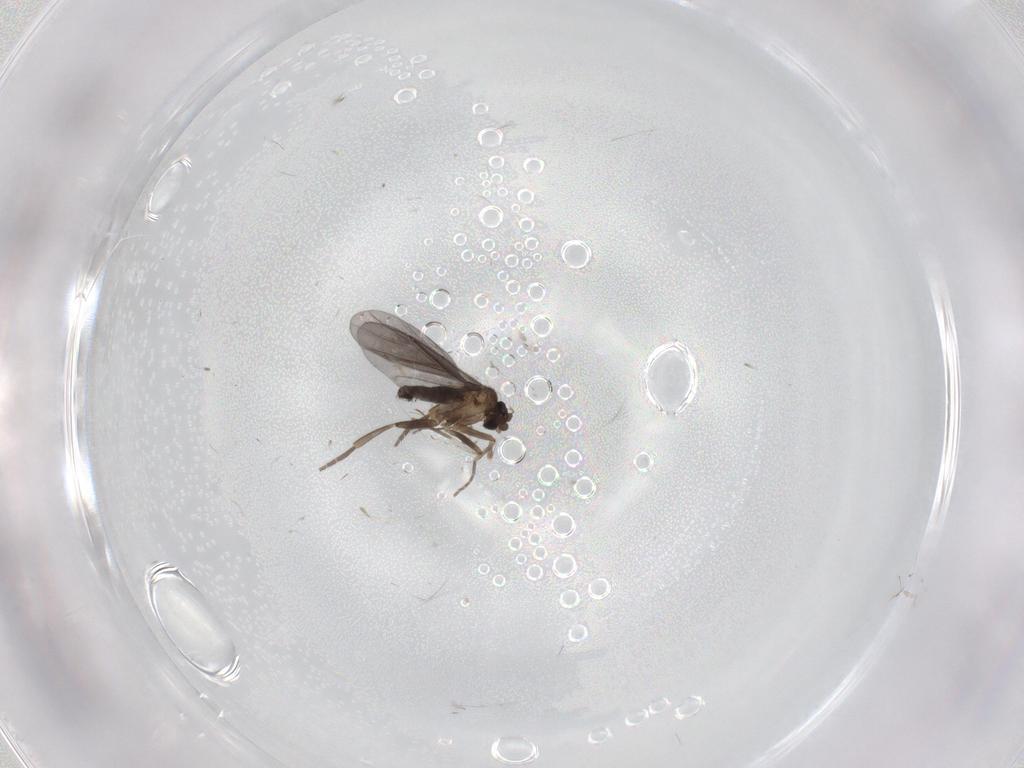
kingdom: Animalia
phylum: Arthropoda
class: Insecta
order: Diptera
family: Phoridae
